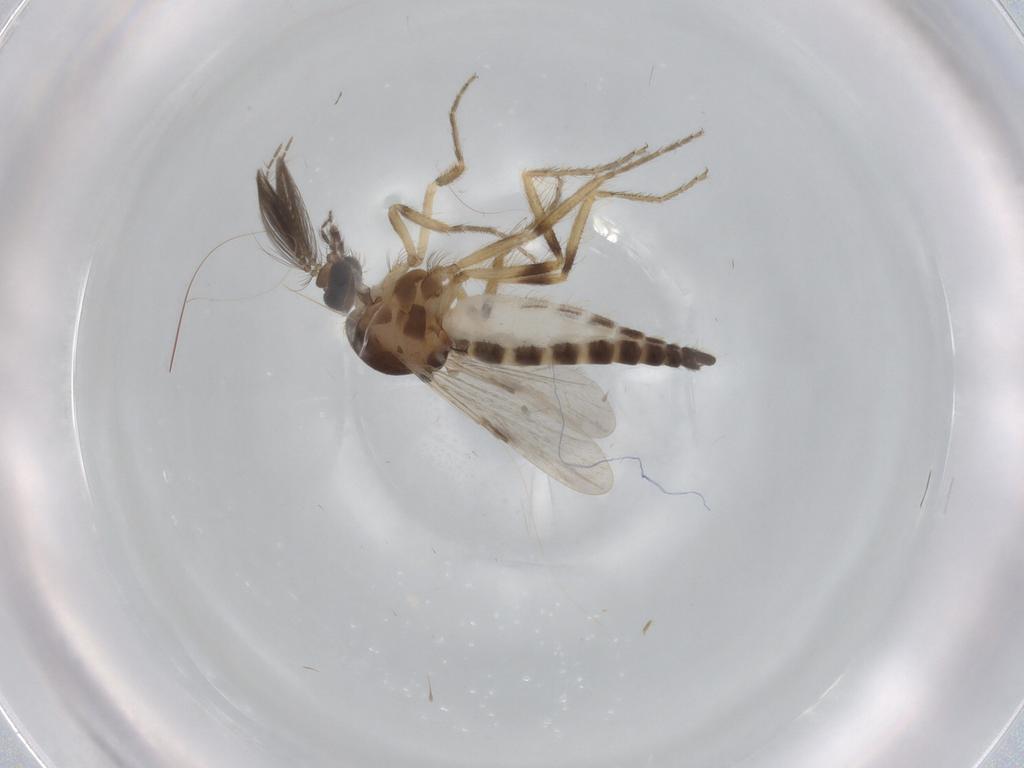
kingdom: Animalia
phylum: Arthropoda
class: Insecta
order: Diptera
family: Ceratopogonidae
